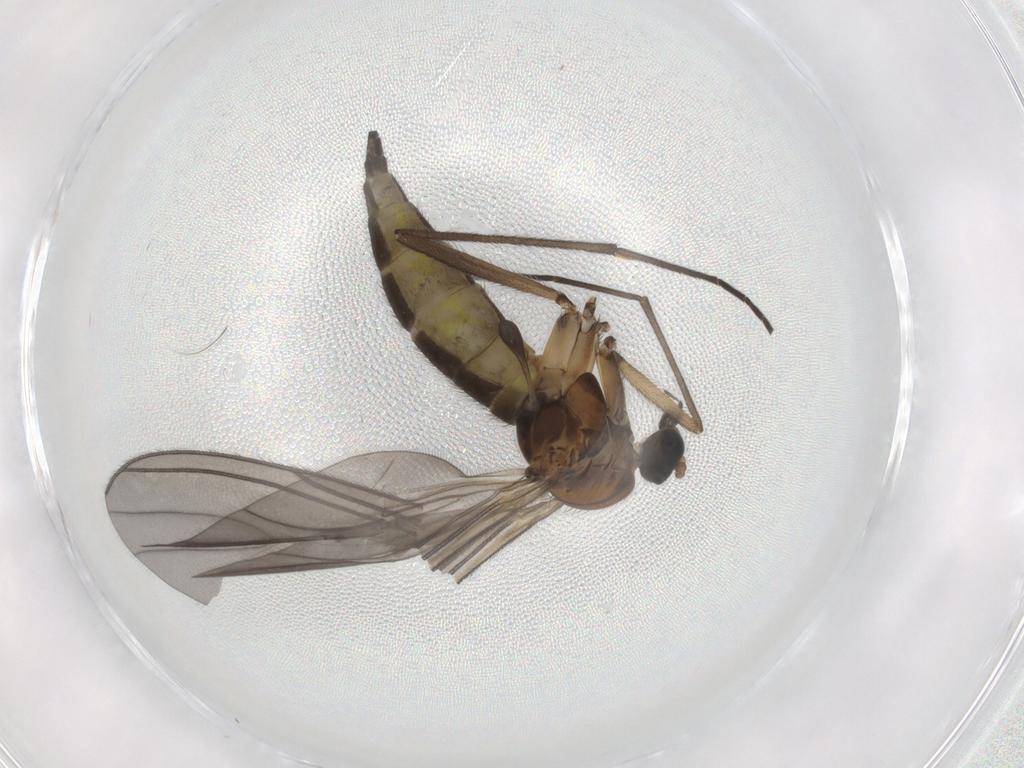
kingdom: Animalia
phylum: Arthropoda
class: Insecta
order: Diptera
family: Sciaridae
